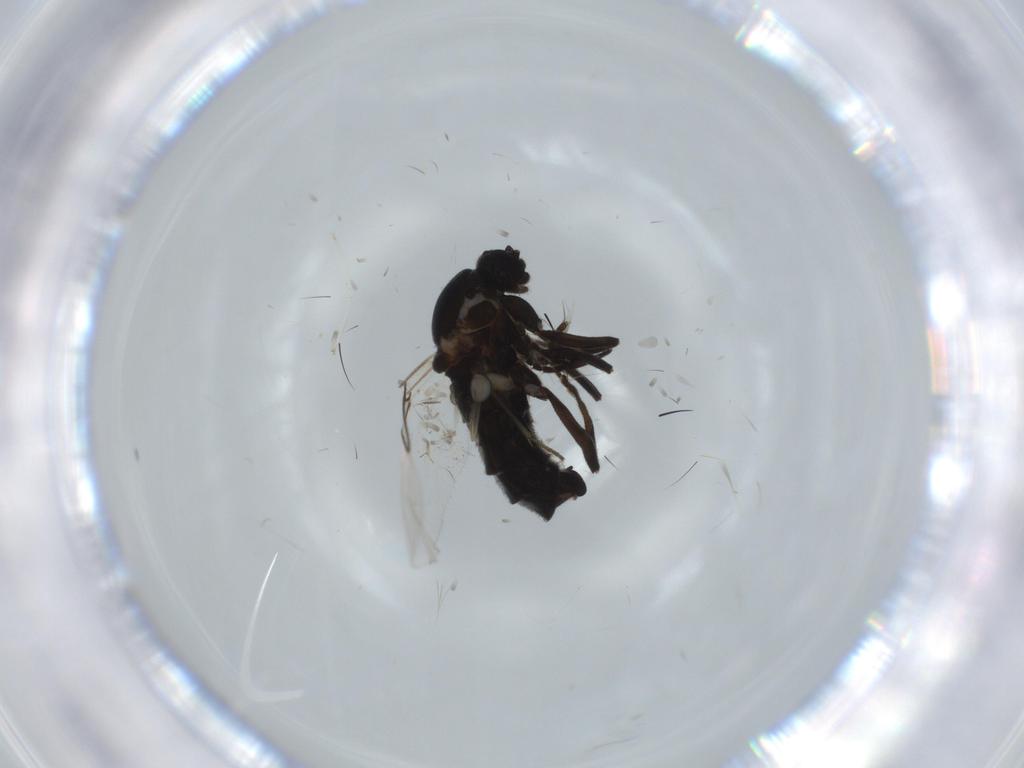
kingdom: Animalia
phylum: Arthropoda
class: Insecta
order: Diptera
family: Scatopsidae
